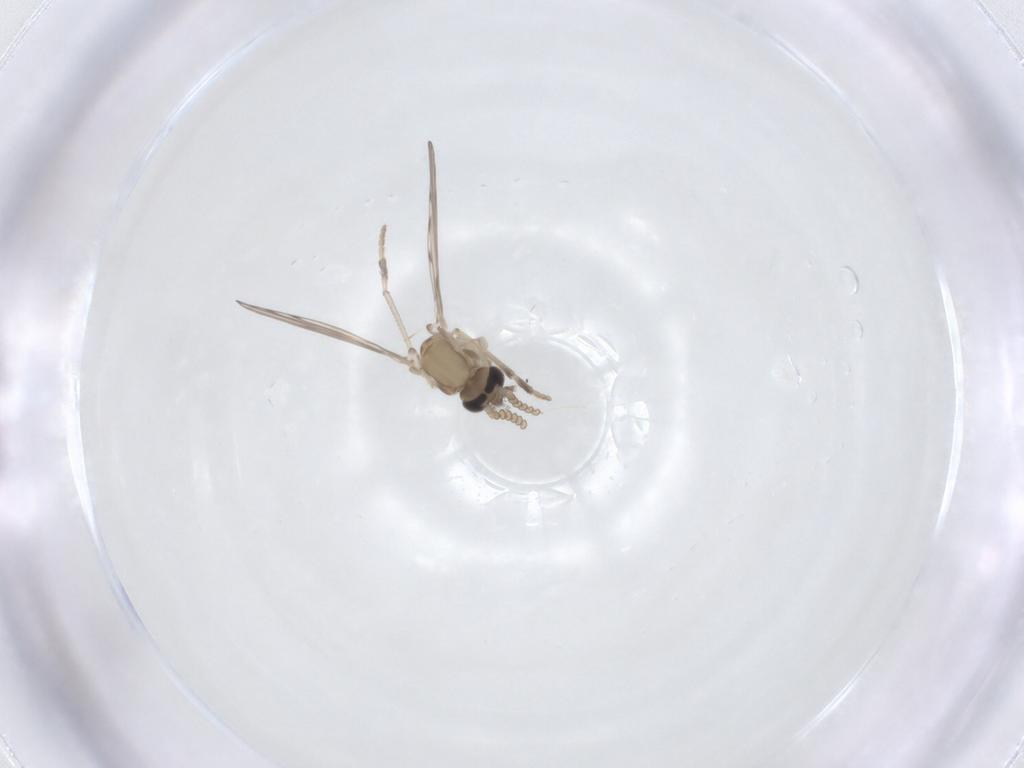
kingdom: Animalia
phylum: Arthropoda
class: Insecta
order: Diptera
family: Psychodidae
